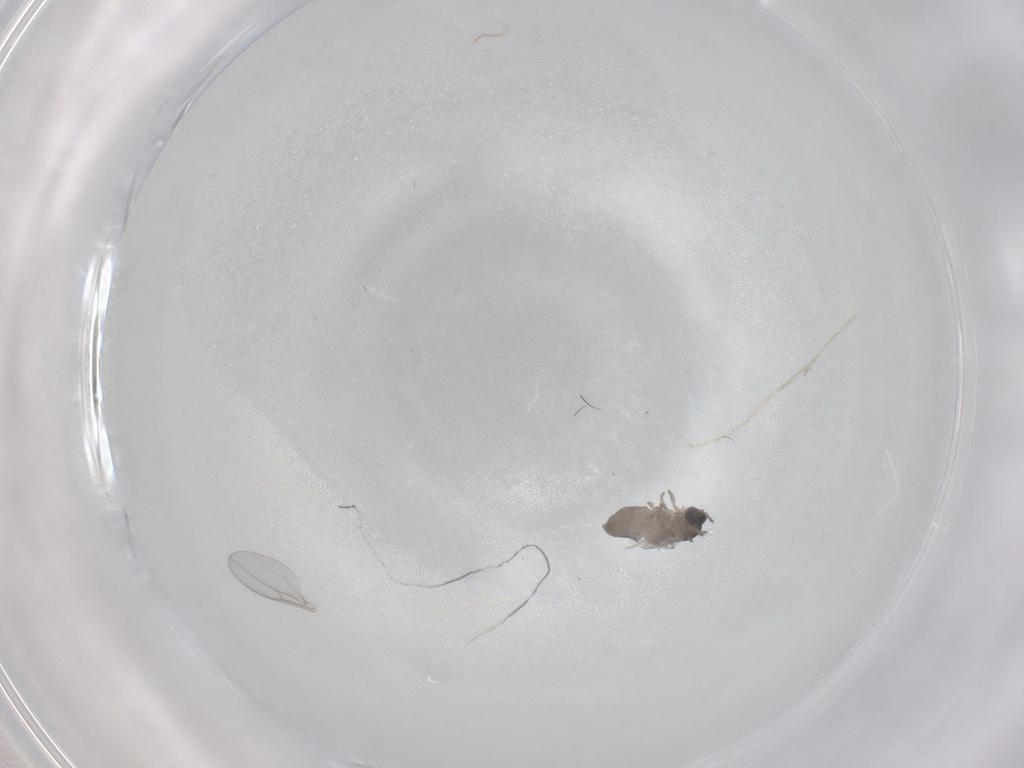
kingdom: Animalia
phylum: Arthropoda
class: Insecta
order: Diptera
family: Cecidomyiidae
